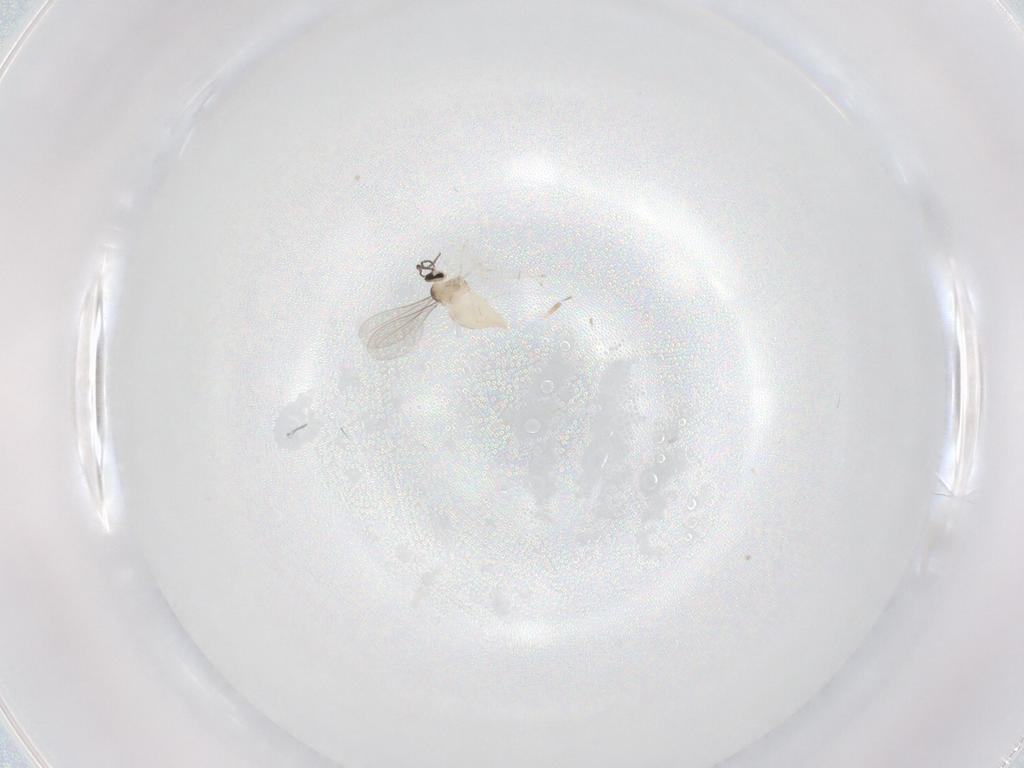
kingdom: Animalia
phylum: Arthropoda
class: Insecta
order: Diptera
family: Cecidomyiidae
